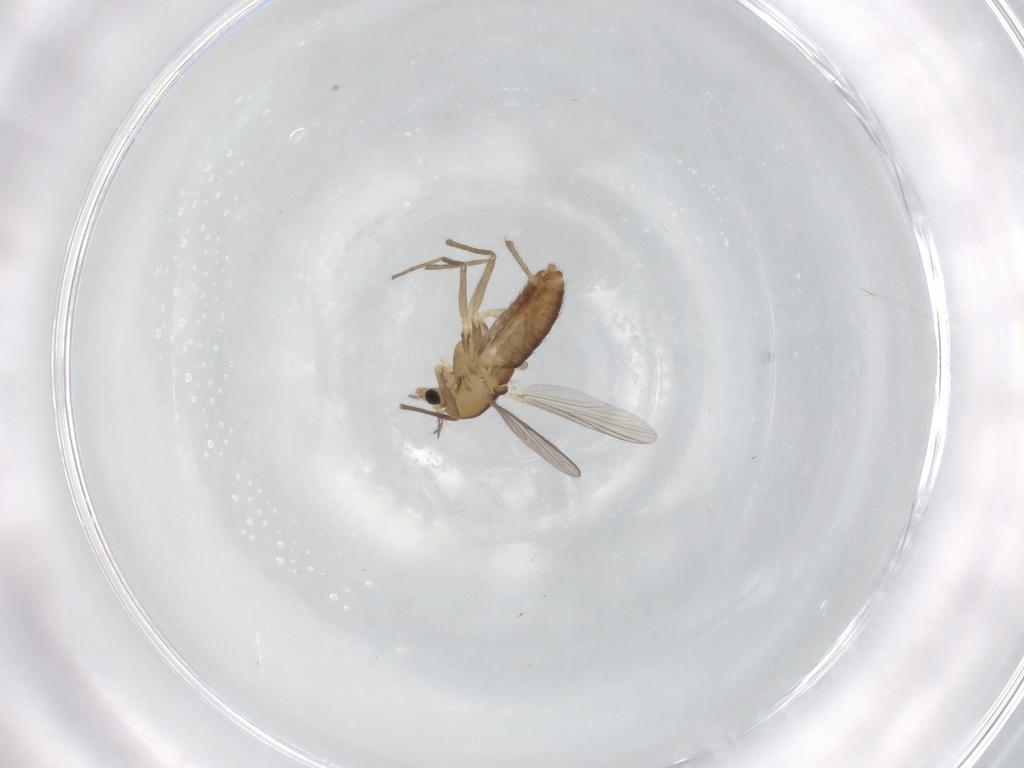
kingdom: Animalia
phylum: Arthropoda
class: Insecta
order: Diptera
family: Chironomidae
